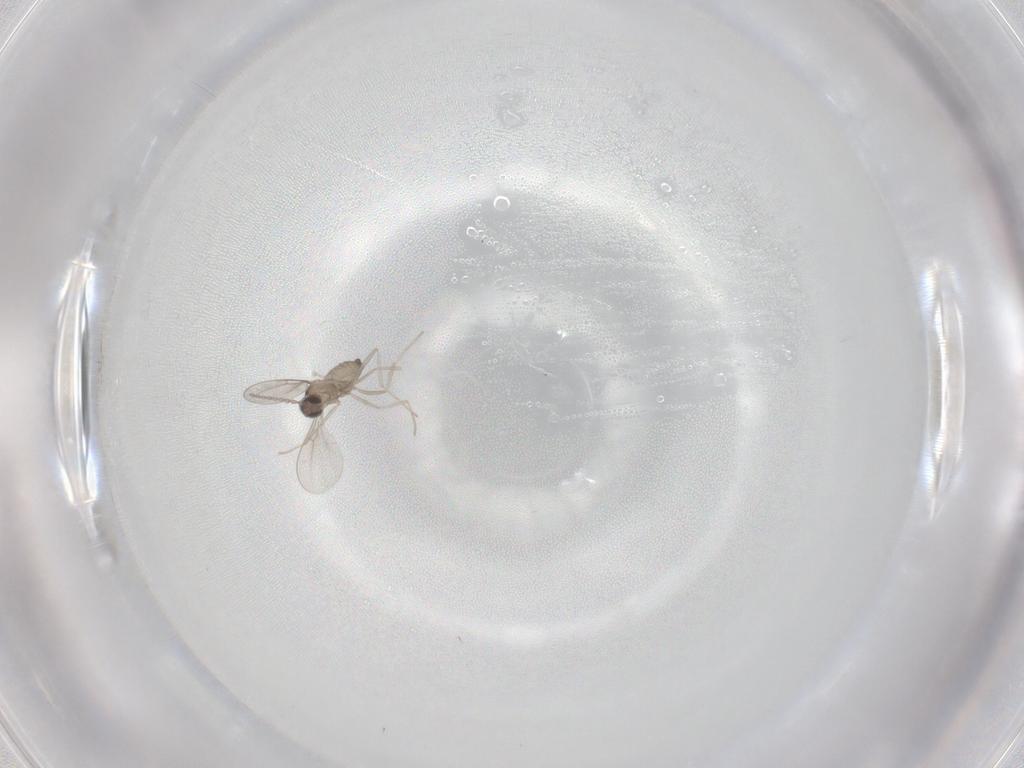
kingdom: Animalia
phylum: Arthropoda
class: Insecta
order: Diptera
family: Cecidomyiidae
